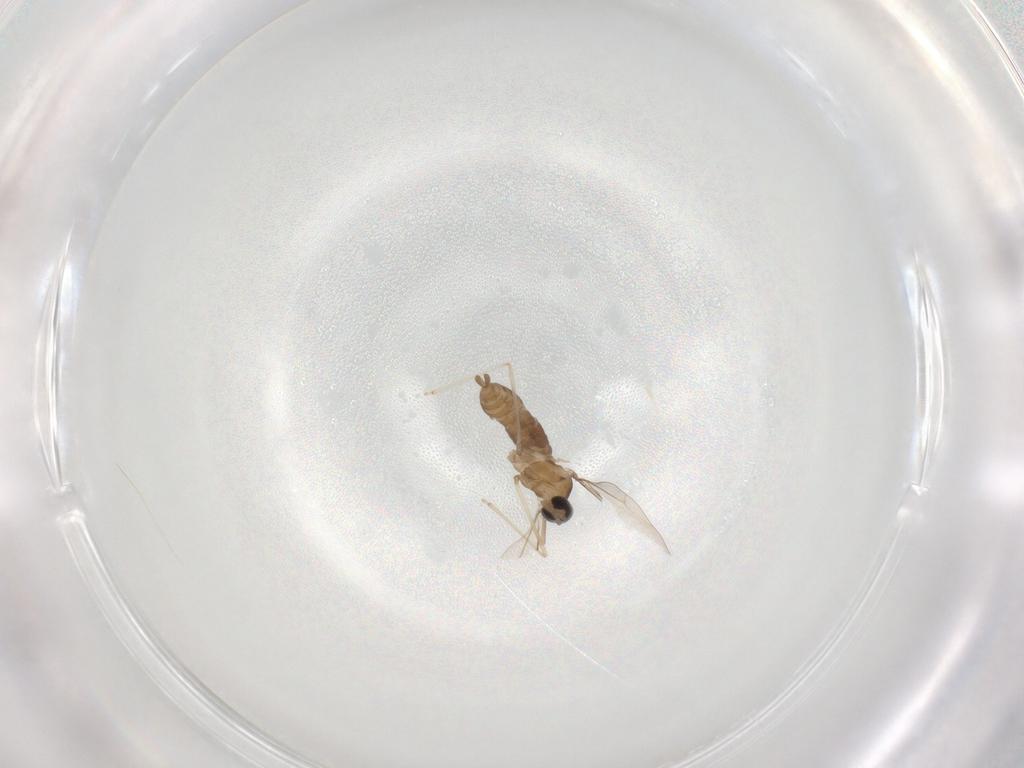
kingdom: Animalia
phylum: Arthropoda
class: Insecta
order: Diptera
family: Cecidomyiidae
